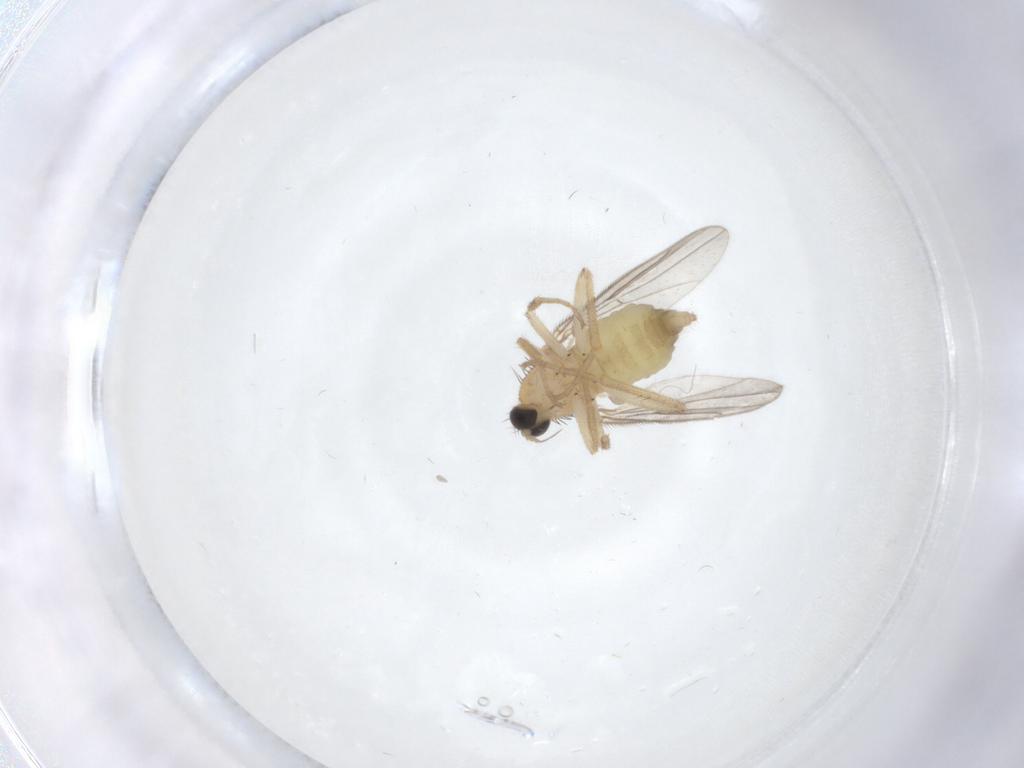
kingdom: Animalia
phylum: Arthropoda
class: Insecta
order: Diptera
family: Hybotidae
